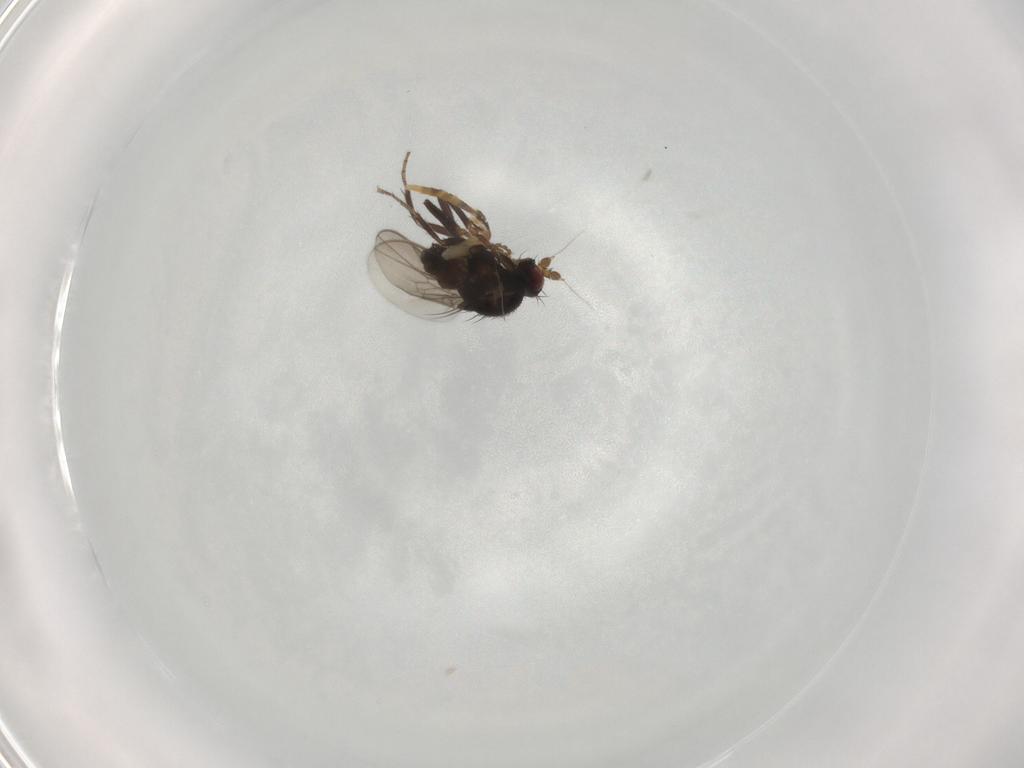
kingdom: Animalia
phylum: Arthropoda
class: Insecta
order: Diptera
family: Sphaeroceridae
